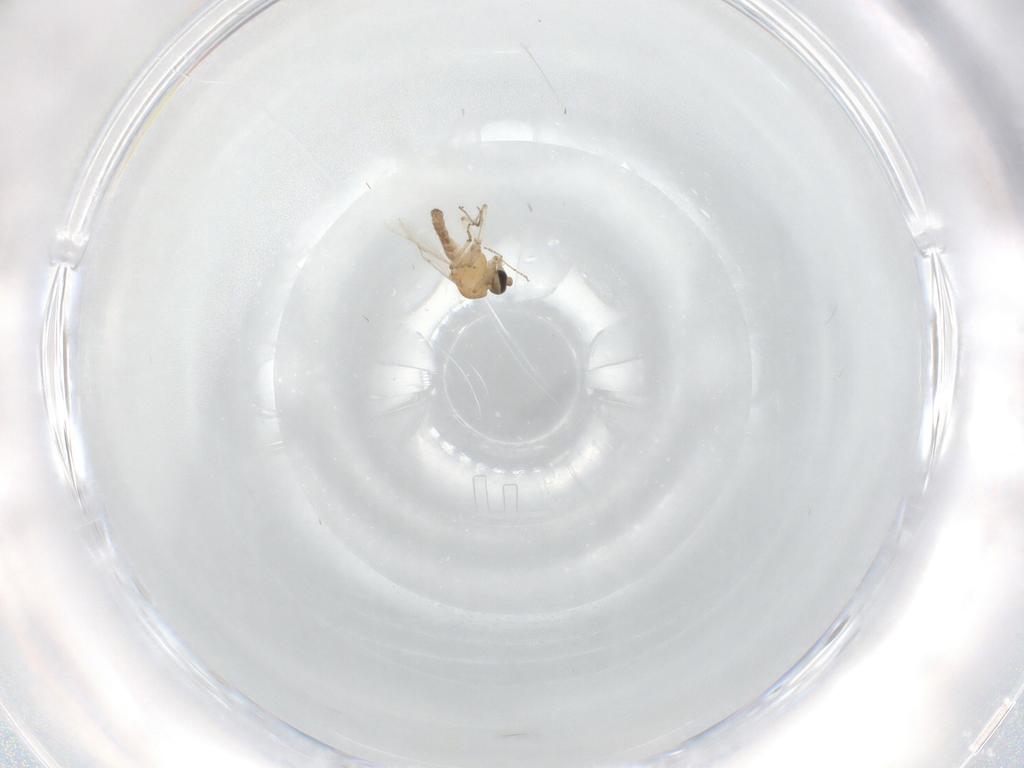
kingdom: Animalia
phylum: Arthropoda
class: Insecta
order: Diptera
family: Ceratopogonidae
